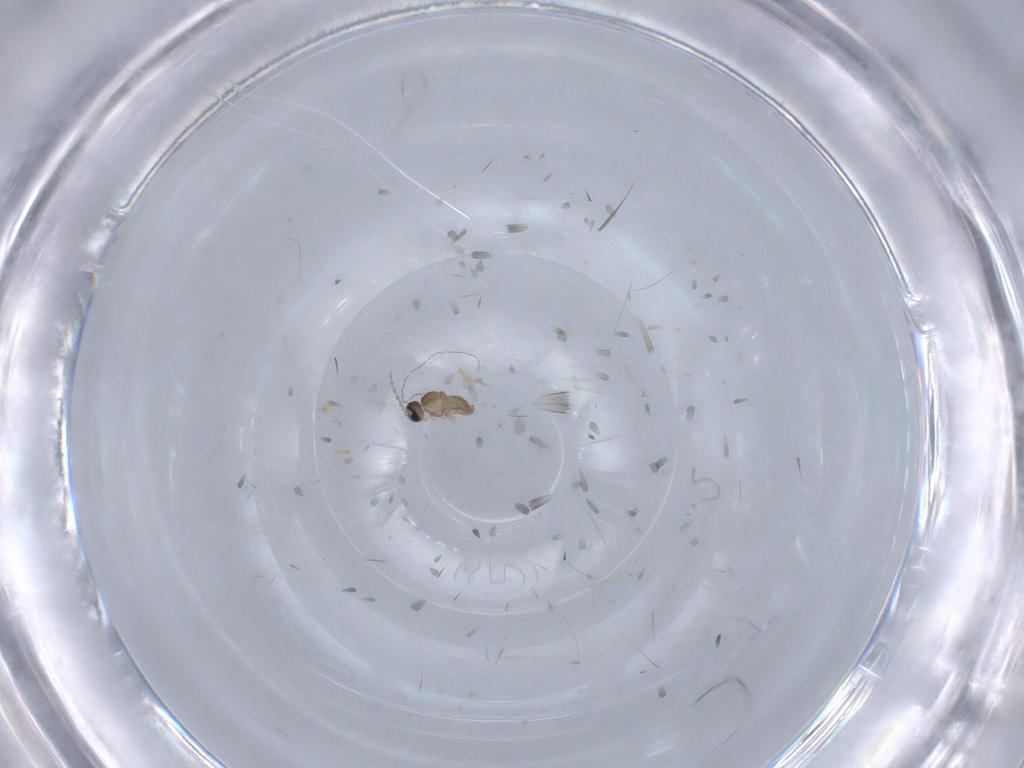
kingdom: Animalia
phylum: Arthropoda
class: Insecta
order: Diptera
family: Cecidomyiidae
